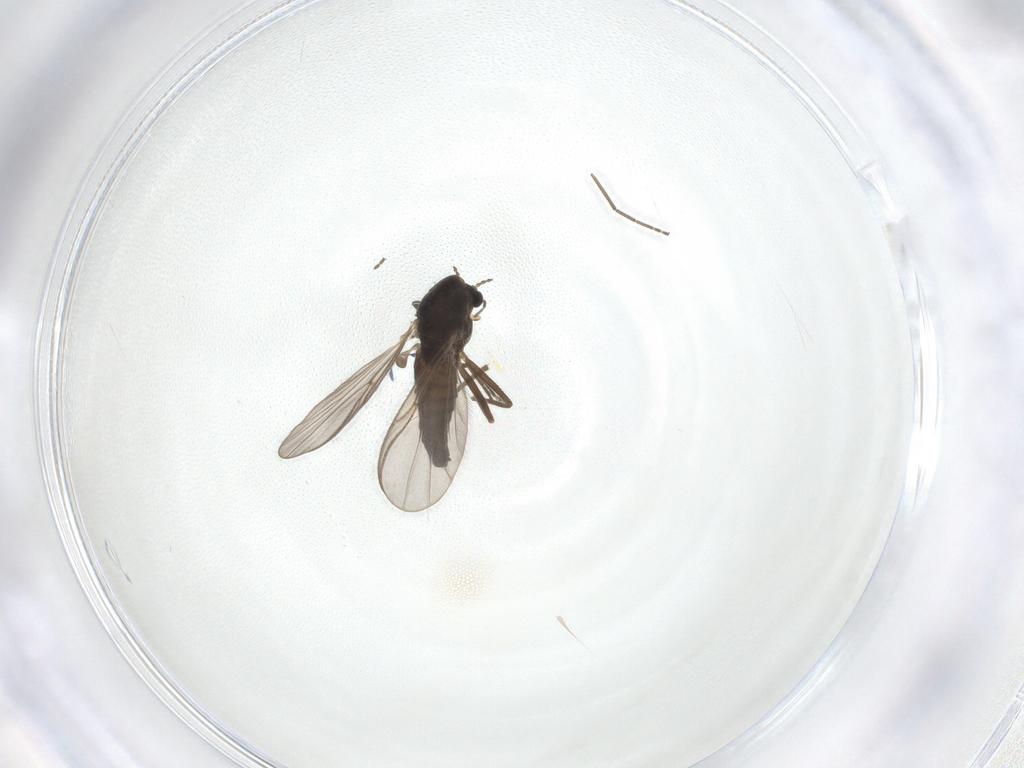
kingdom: Animalia
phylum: Arthropoda
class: Insecta
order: Diptera
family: Chironomidae
